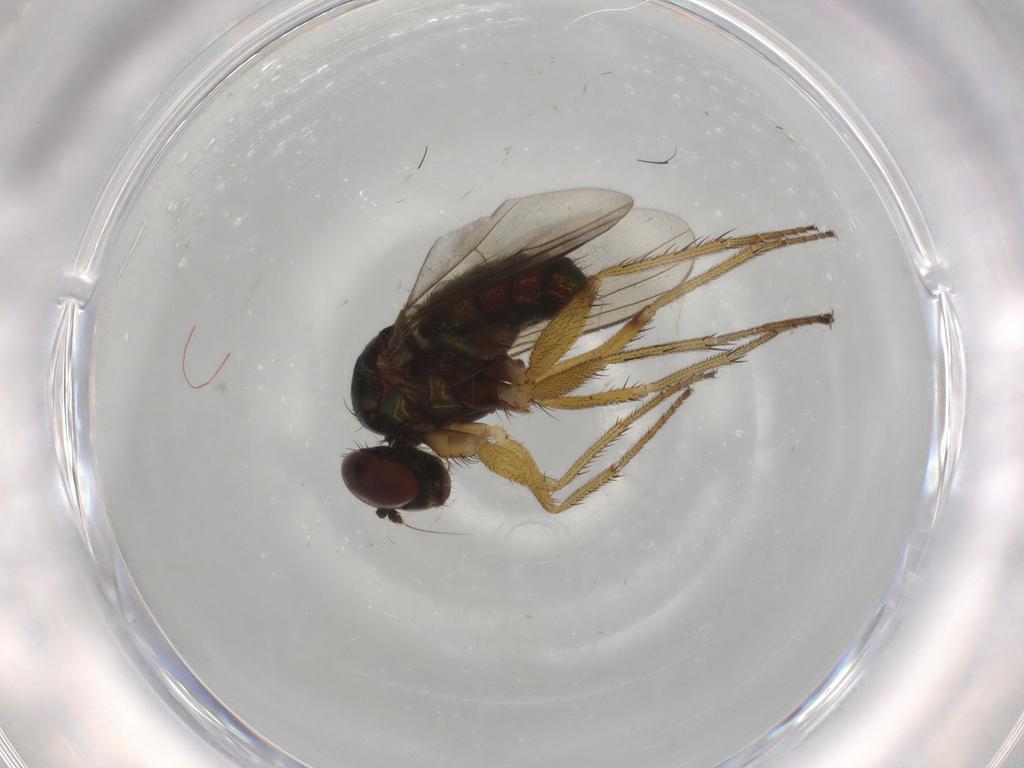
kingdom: Animalia
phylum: Arthropoda
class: Insecta
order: Diptera
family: Dolichopodidae
